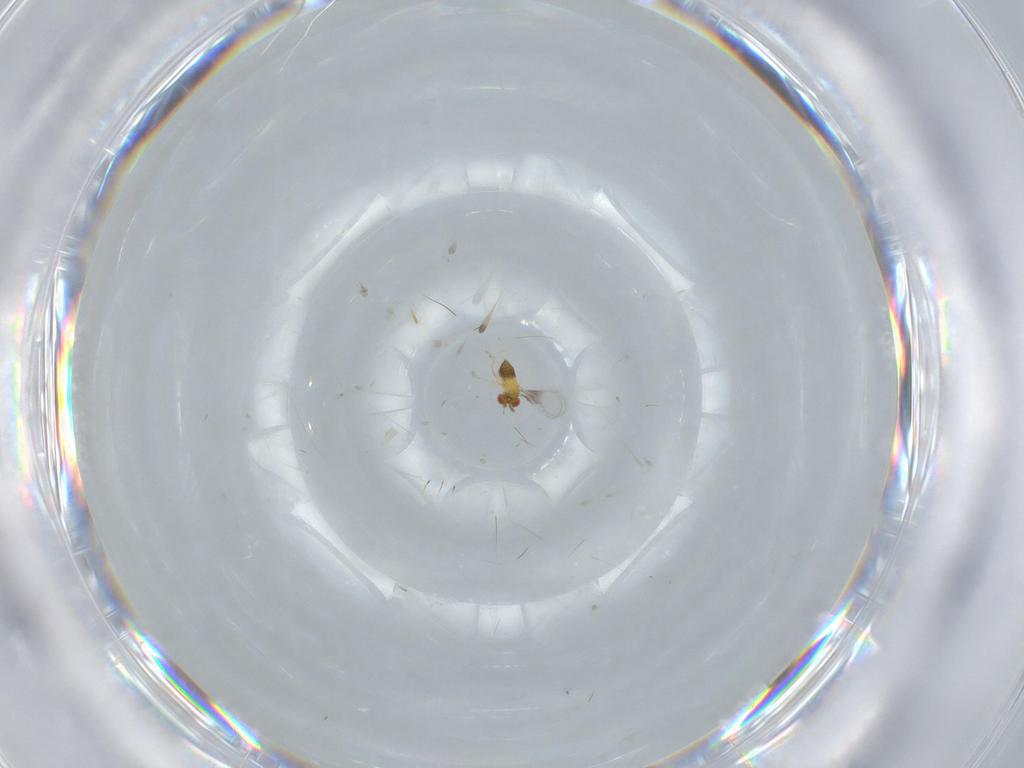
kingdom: Animalia
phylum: Arthropoda
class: Insecta
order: Hymenoptera
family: Trichogrammatidae
